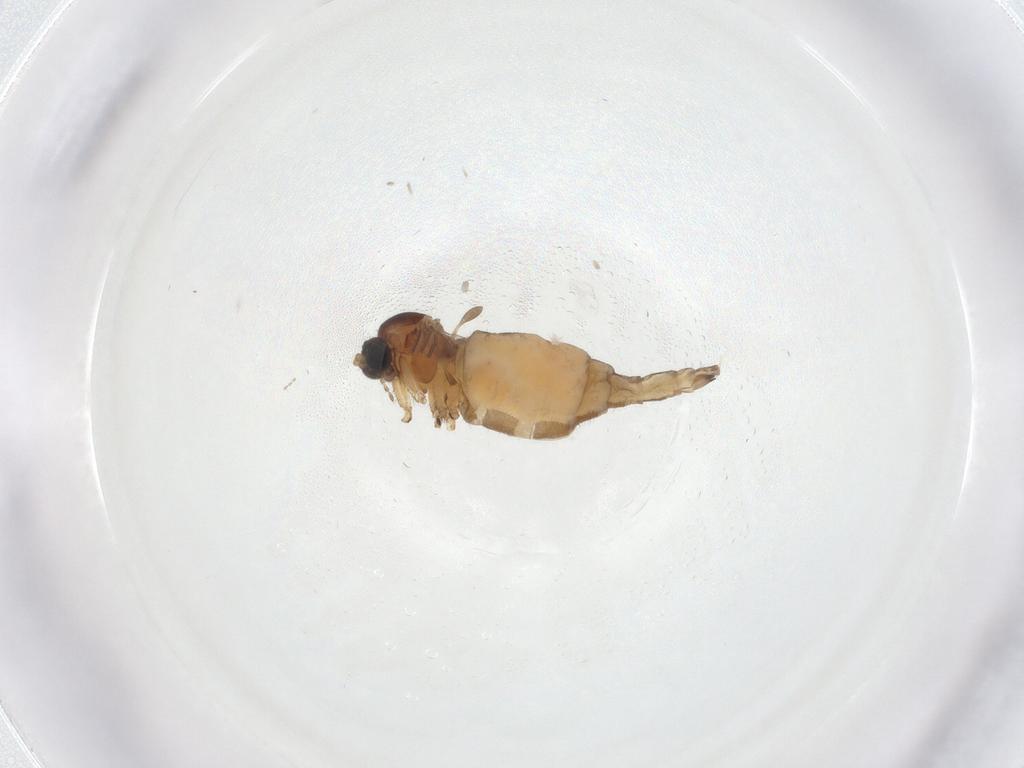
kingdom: Animalia
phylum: Arthropoda
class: Insecta
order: Diptera
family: Sciaridae
